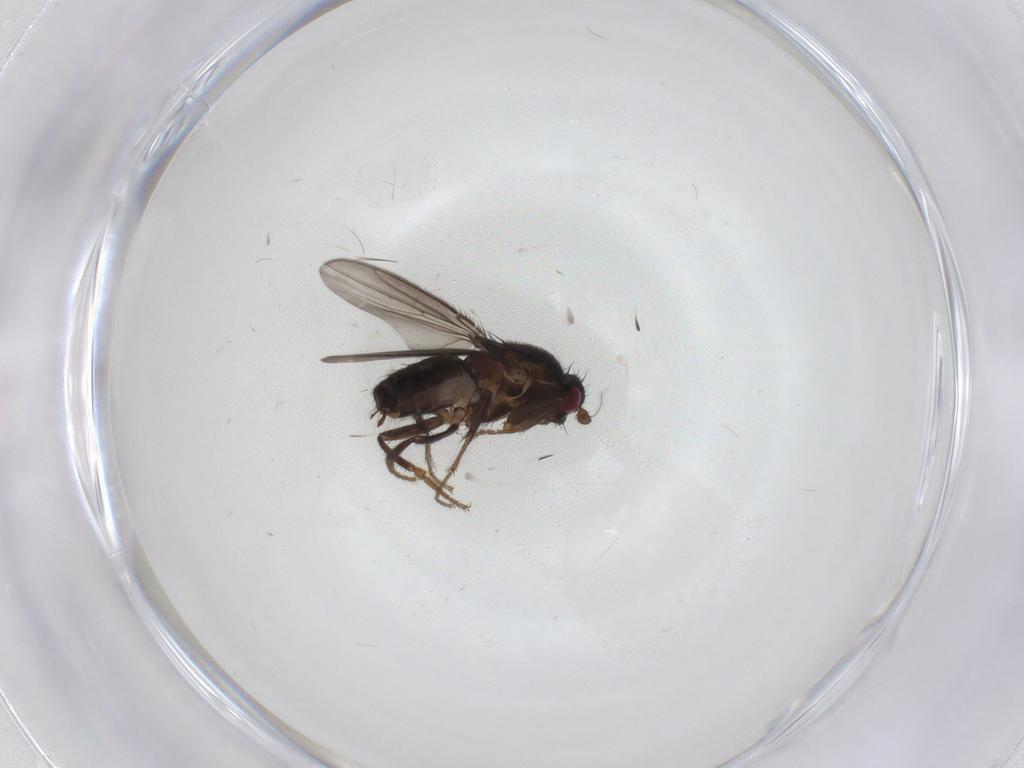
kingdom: Animalia
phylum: Arthropoda
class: Insecta
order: Diptera
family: Sphaeroceridae
